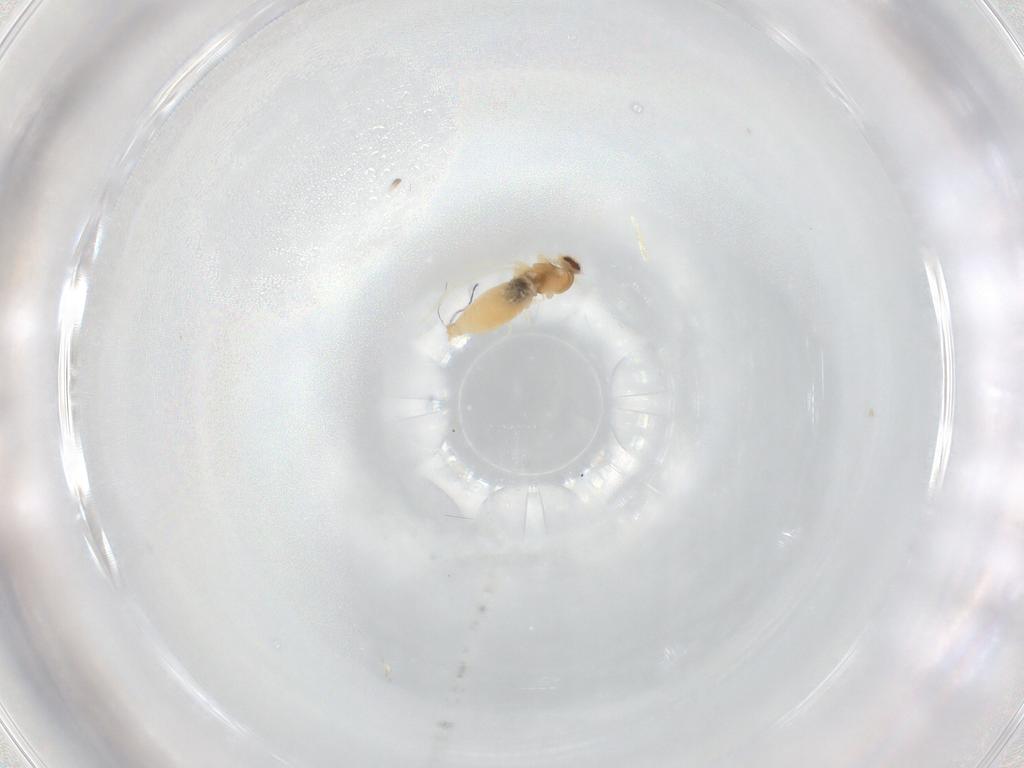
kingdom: Animalia
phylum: Arthropoda
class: Insecta
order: Diptera
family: Cecidomyiidae
